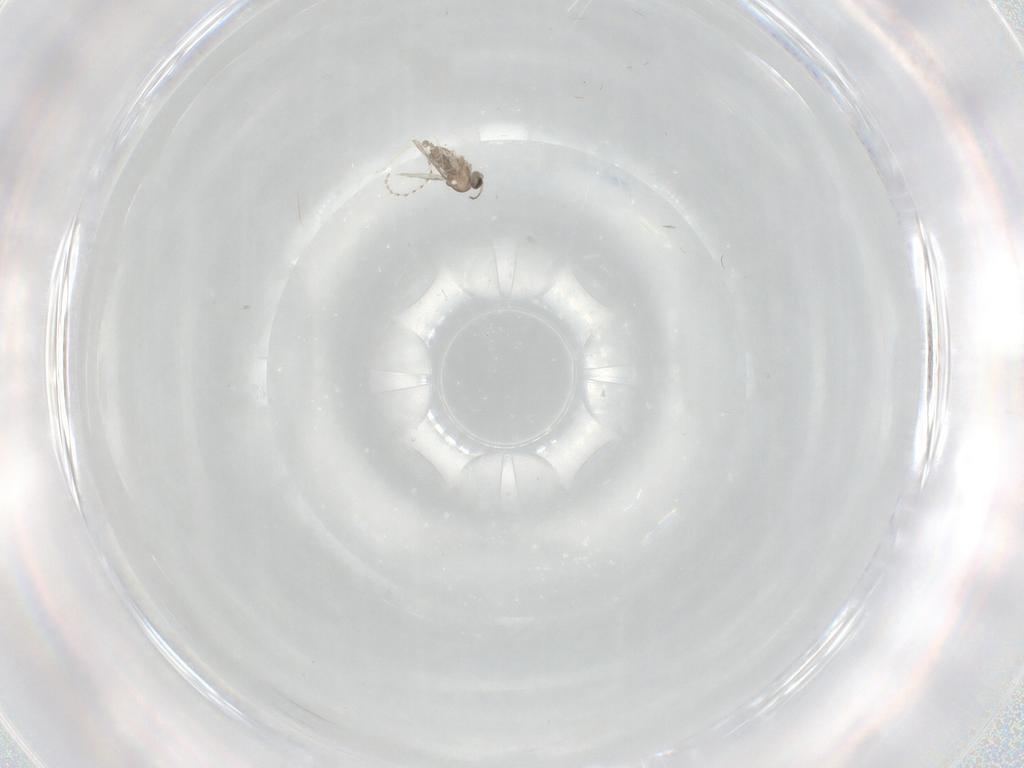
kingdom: Animalia
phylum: Arthropoda
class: Insecta
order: Diptera
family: Cecidomyiidae
